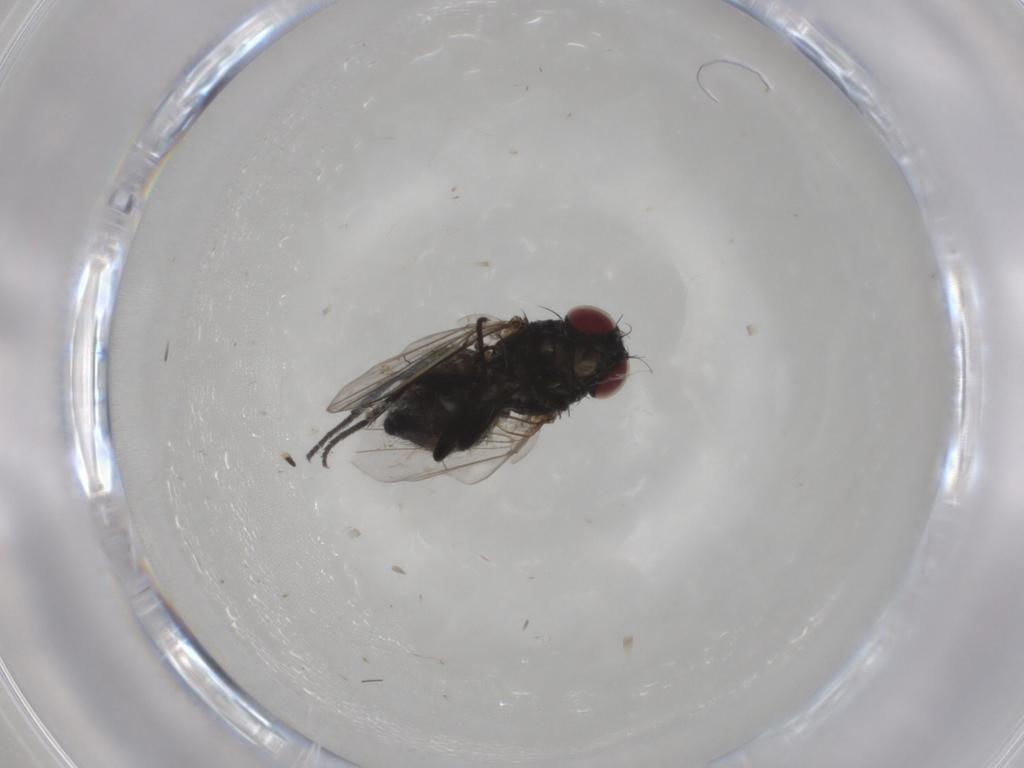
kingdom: Animalia
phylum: Arthropoda
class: Insecta
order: Diptera
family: Agromyzidae
